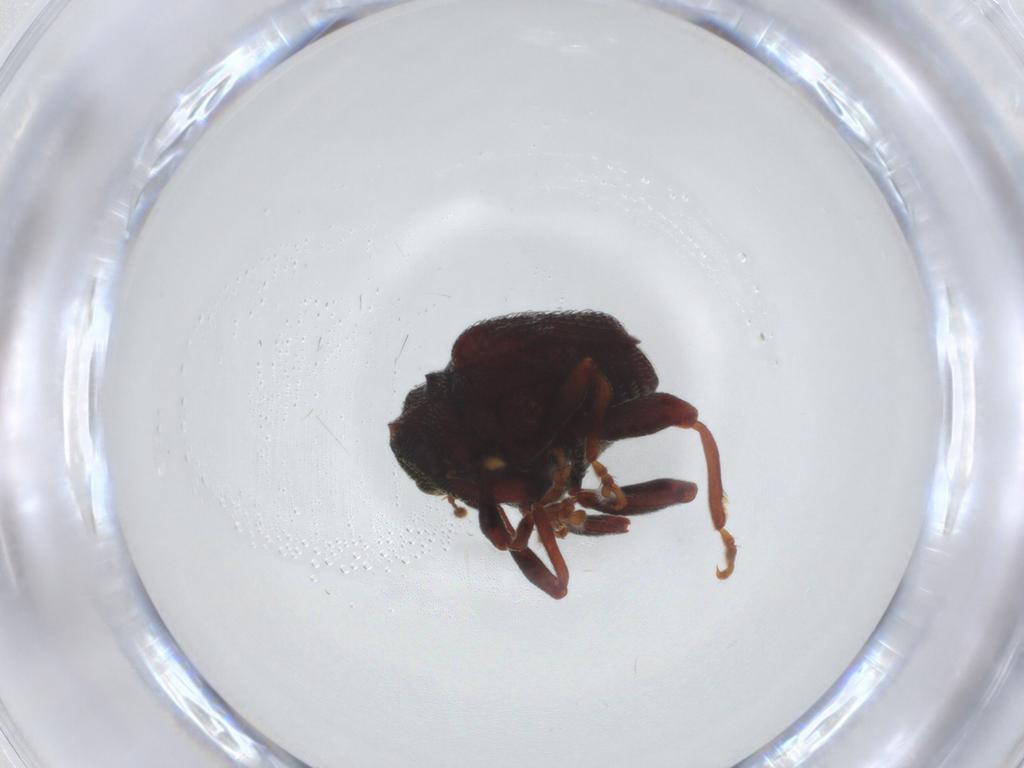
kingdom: Animalia
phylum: Arthropoda
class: Insecta
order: Coleoptera
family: Curculionidae
